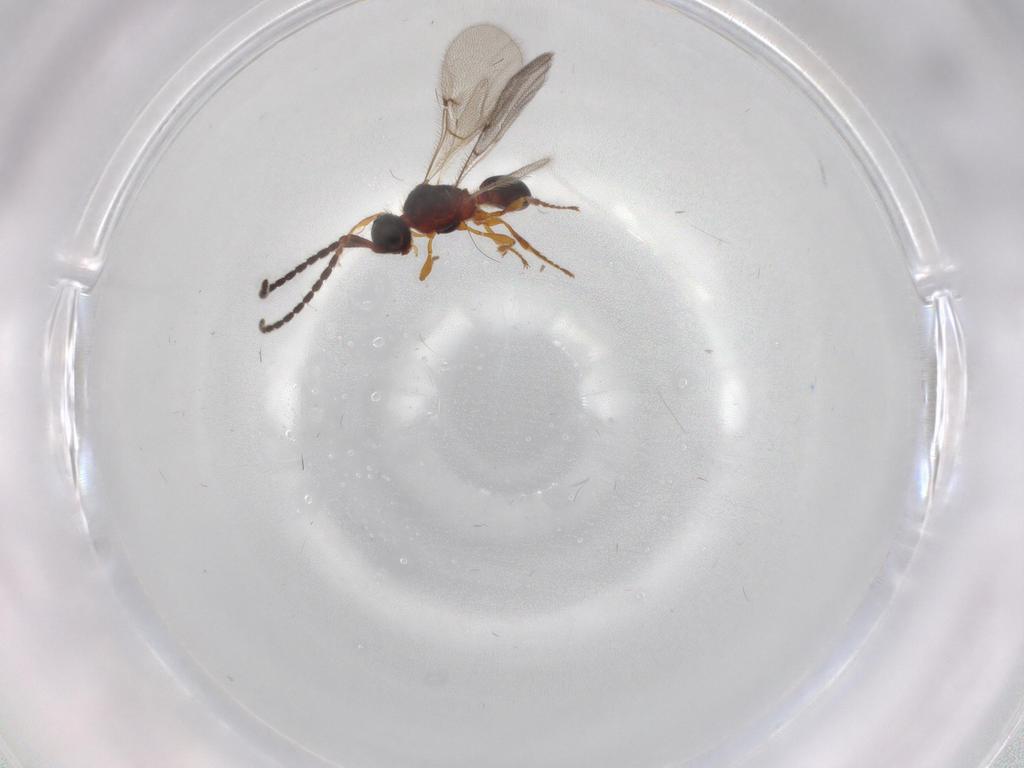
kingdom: Animalia
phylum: Arthropoda
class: Insecta
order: Hymenoptera
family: Diapriidae
